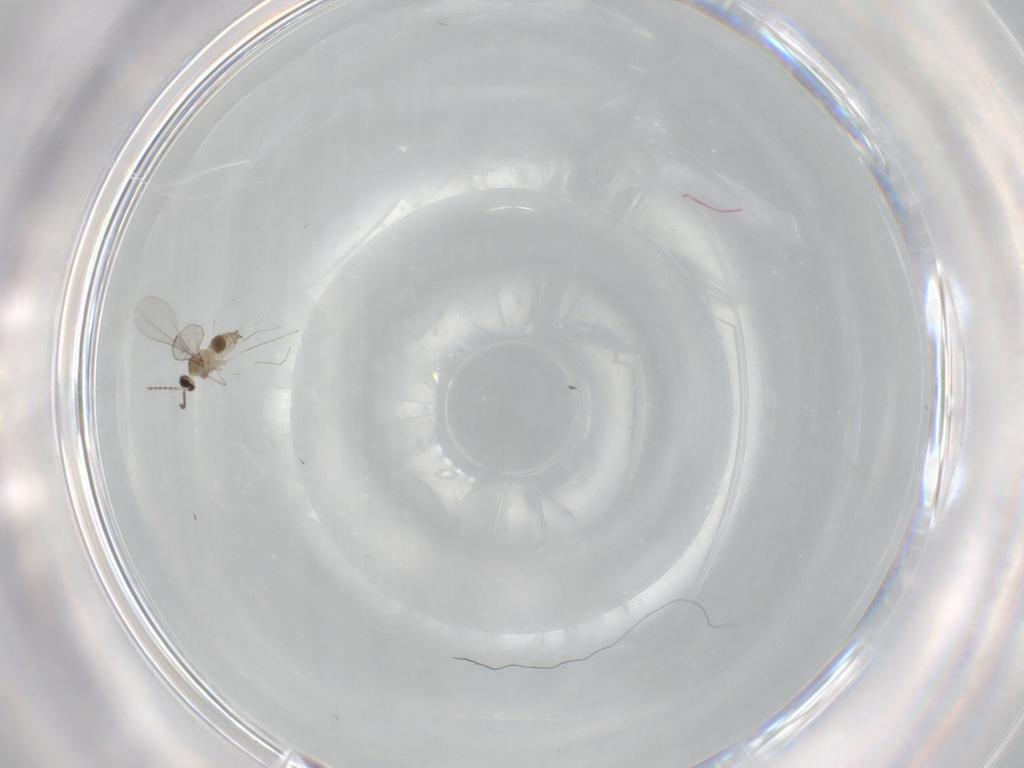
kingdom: Animalia
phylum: Arthropoda
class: Insecta
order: Diptera
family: Cecidomyiidae
